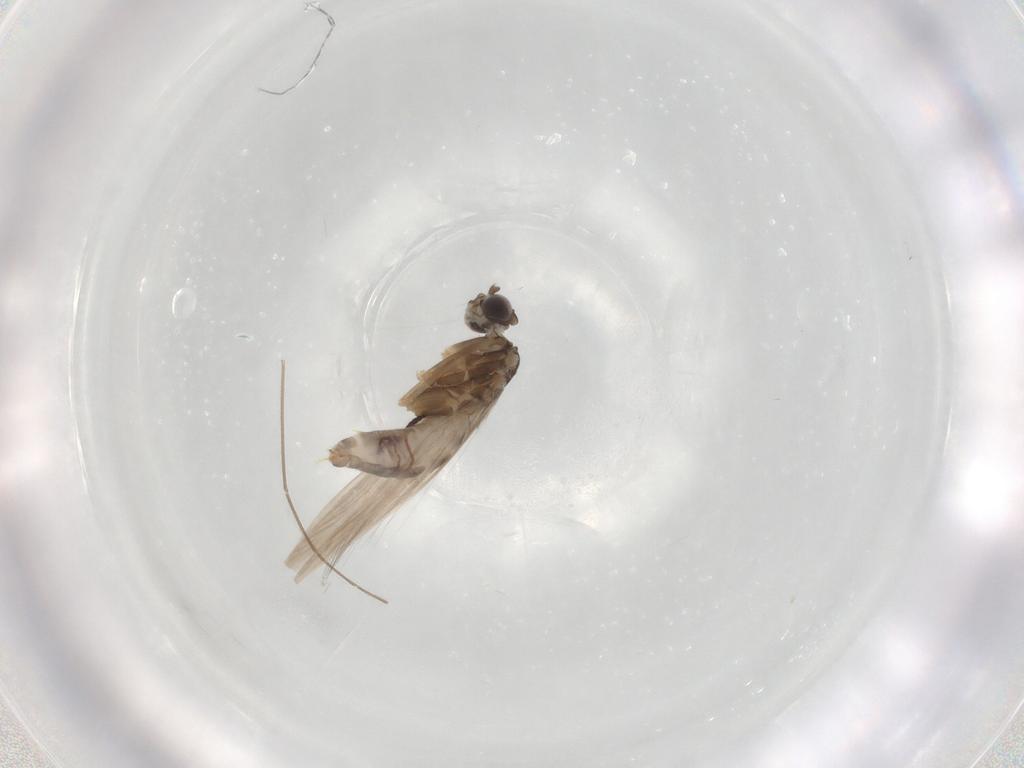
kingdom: Animalia
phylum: Arthropoda
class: Insecta
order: Trichoptera
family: Hydroptilidae
